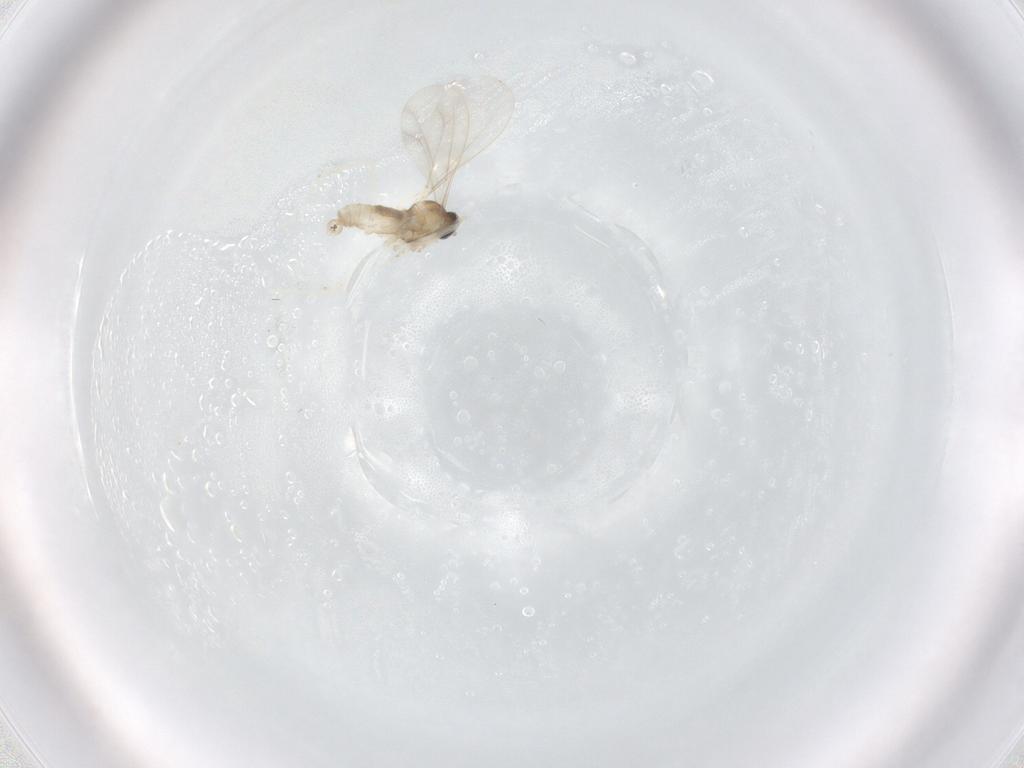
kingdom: Animalia
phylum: Arthropoda
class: Insecta
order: Diptera
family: Cecidomyiidae
